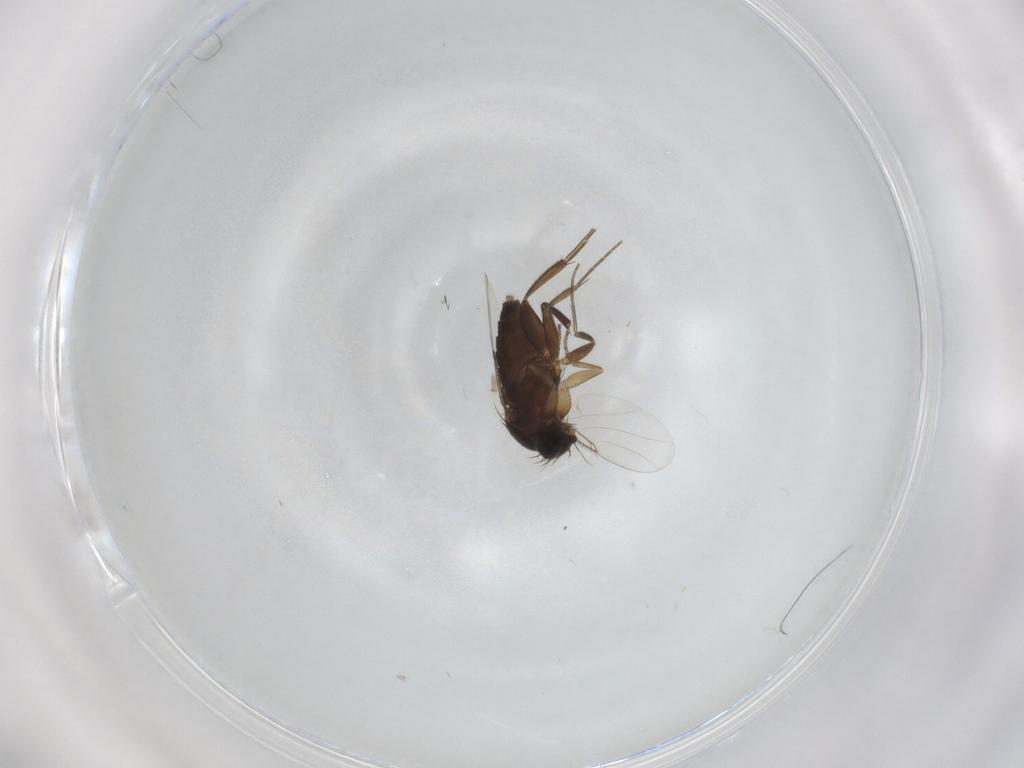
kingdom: Animalia
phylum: Arthropoda
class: Insecta
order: Diptera
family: Phoridae
